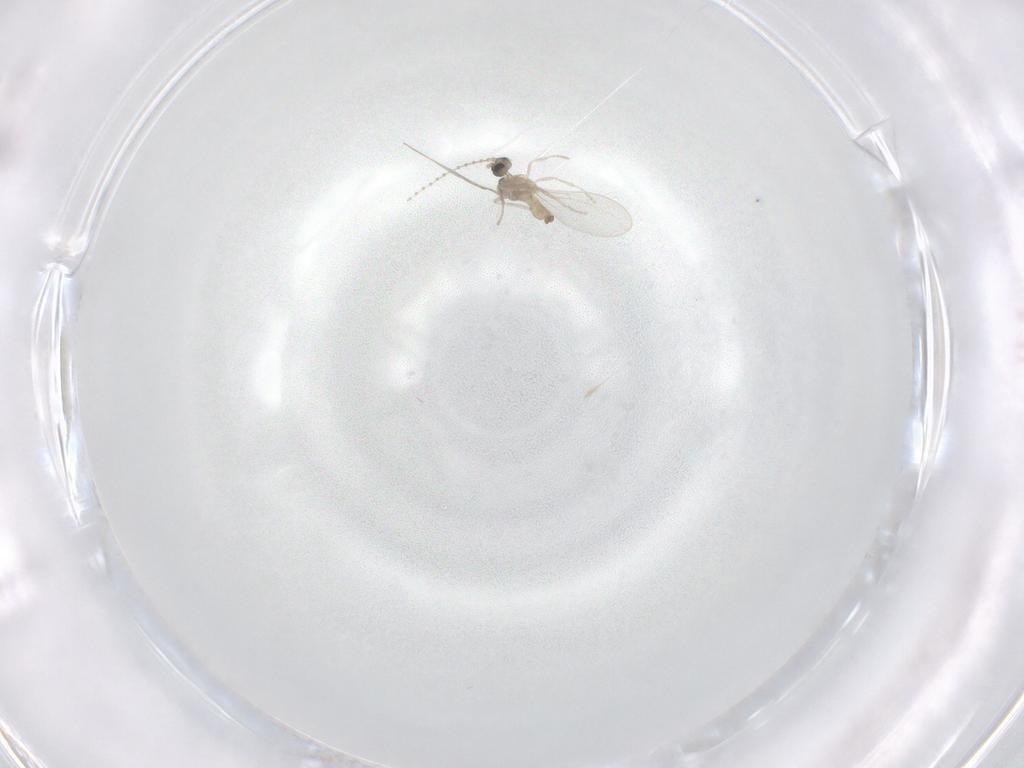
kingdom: Animalia
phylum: Arthropoda
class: Insecta
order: Diptera
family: Cecidomyiidae
